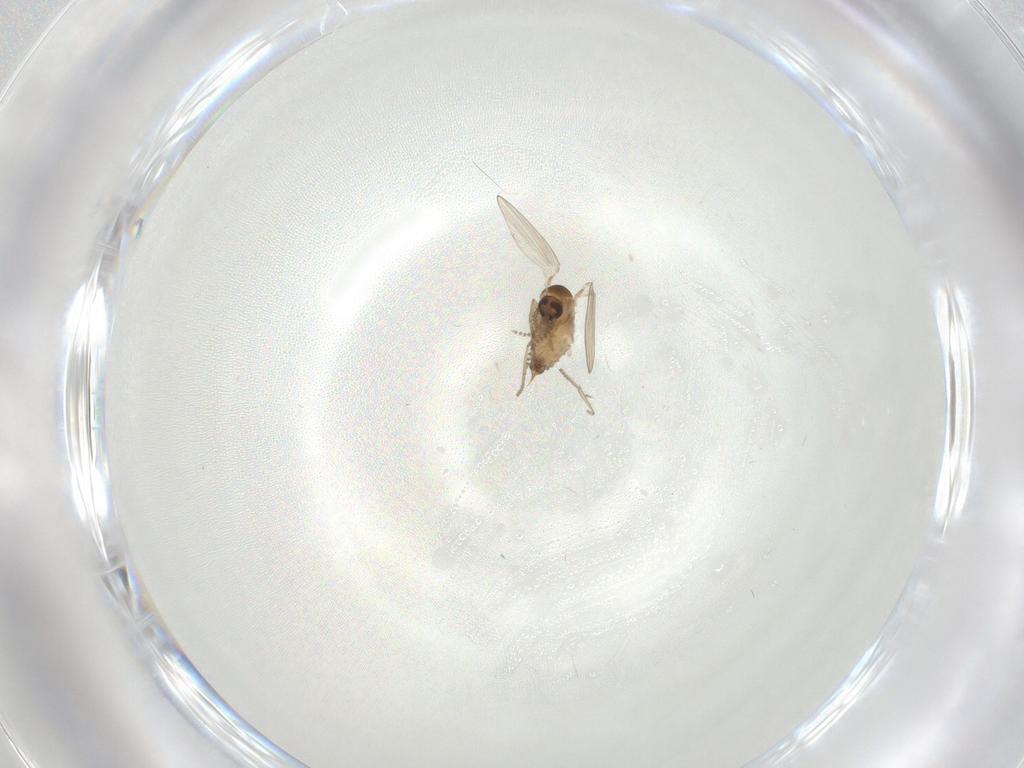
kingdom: Animalia
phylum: Arthropoda
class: Insecta
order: Diptera
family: Psychodidae
